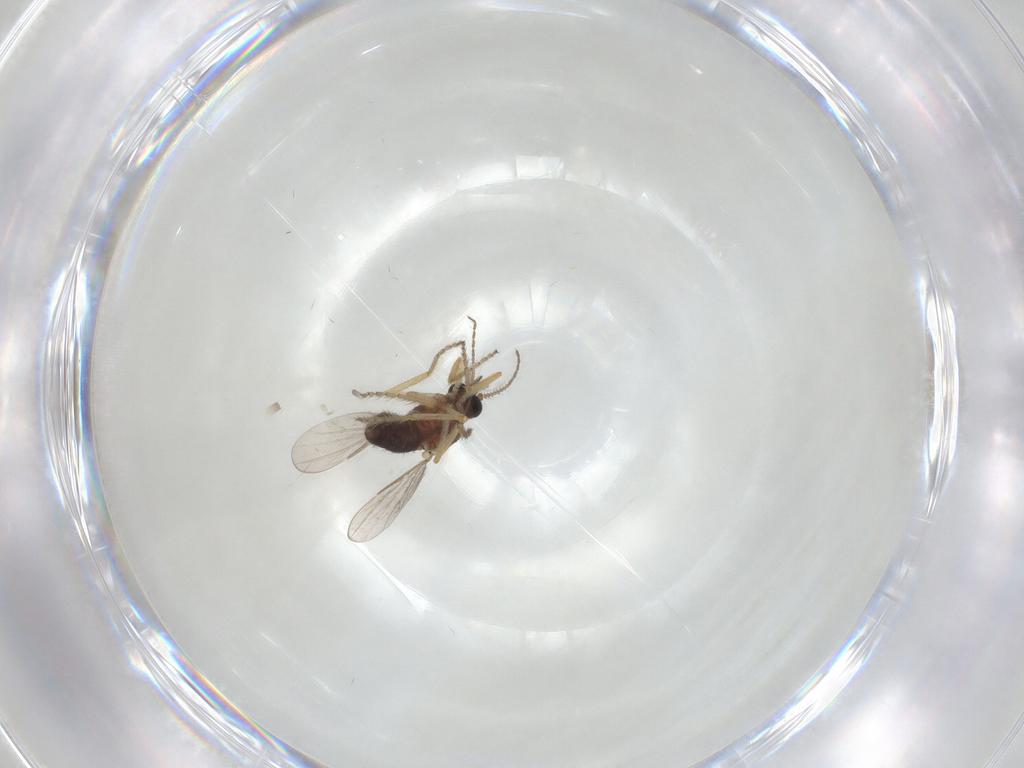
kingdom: Animalia
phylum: Arthropoda
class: Insecta
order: Diptera
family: Ceratopogonidae
